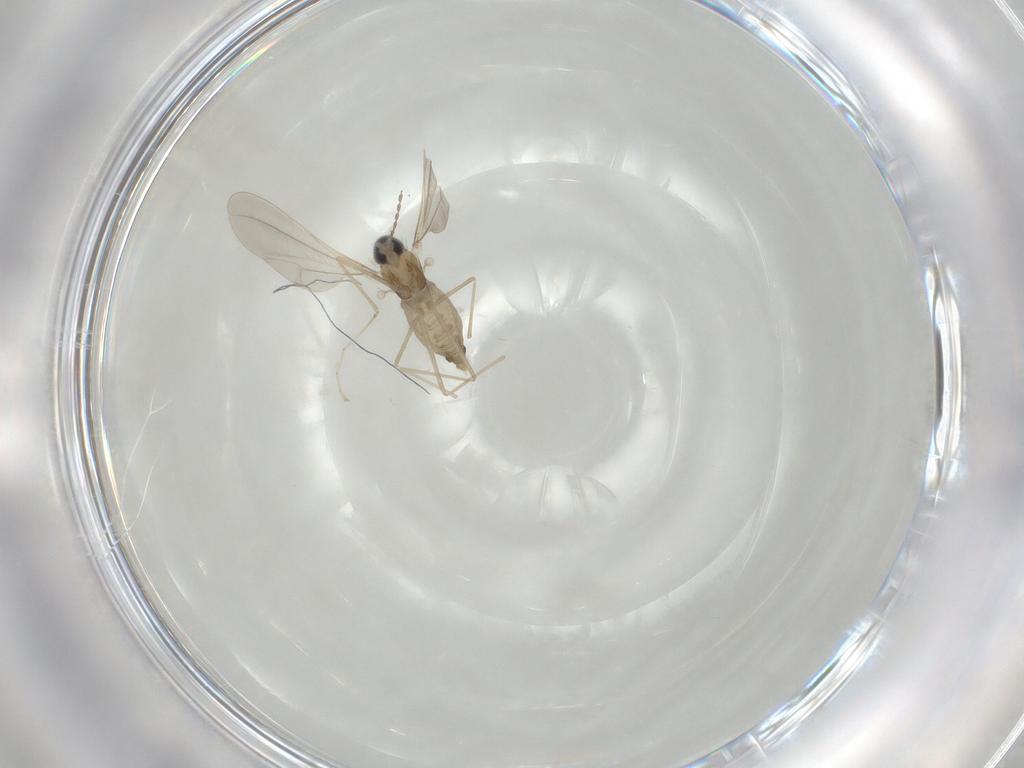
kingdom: Animalia
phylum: Arthropoda
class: Insecta
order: Diptera
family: Cecidomyiidae
